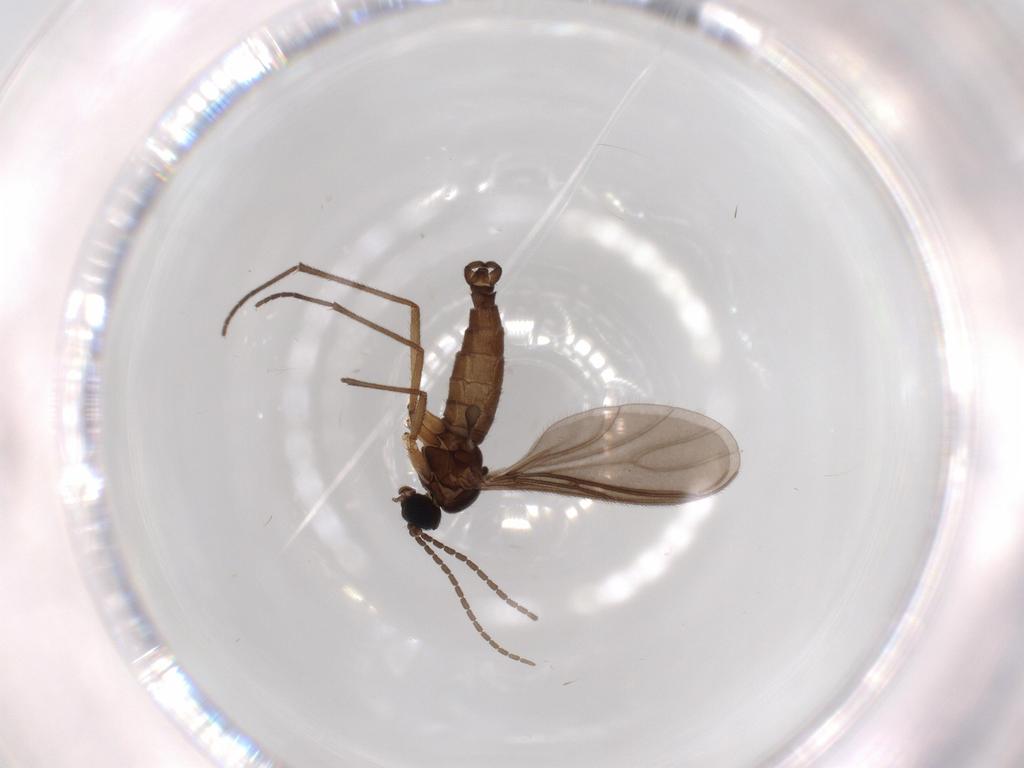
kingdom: Animalia
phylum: Arthropoda
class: Insecta
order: Diptera
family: Sciaridae
